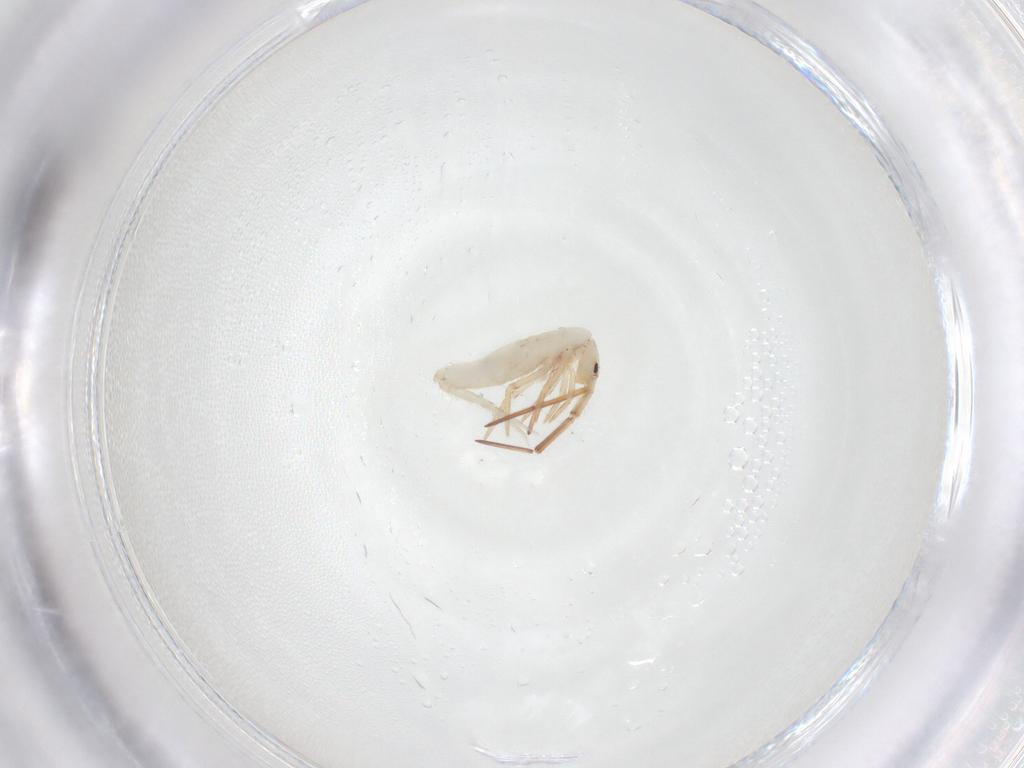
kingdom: Animalia
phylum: Arthropoda
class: Collembola
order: Entomobryomorpha
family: Entomobryidae
